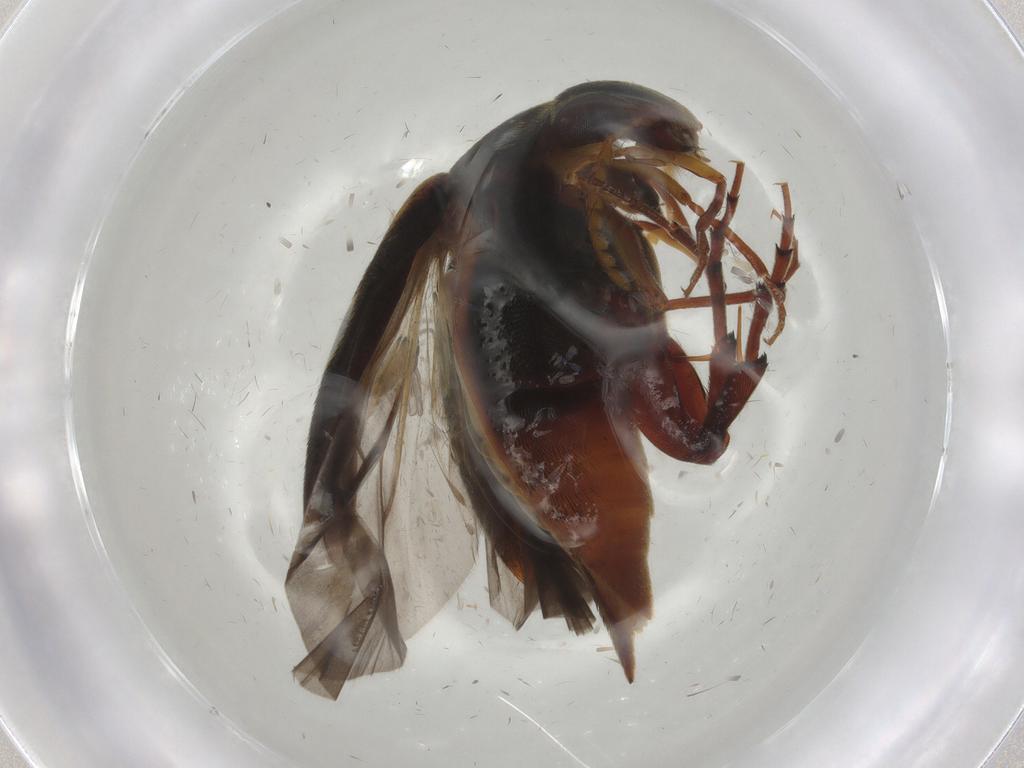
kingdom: Animalia
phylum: Arthropoda
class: Insecta
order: Coleoptera
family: Mordellidae
